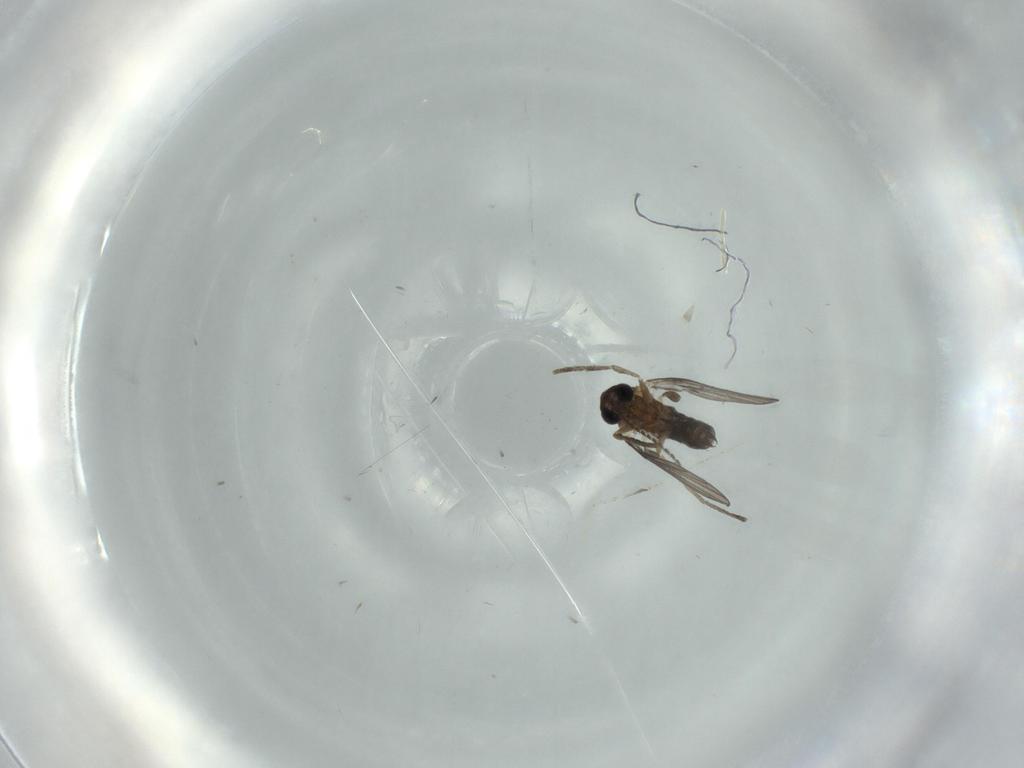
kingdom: Animalia
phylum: Arthropoda
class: Insecta
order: Diptera
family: Psychodidae
